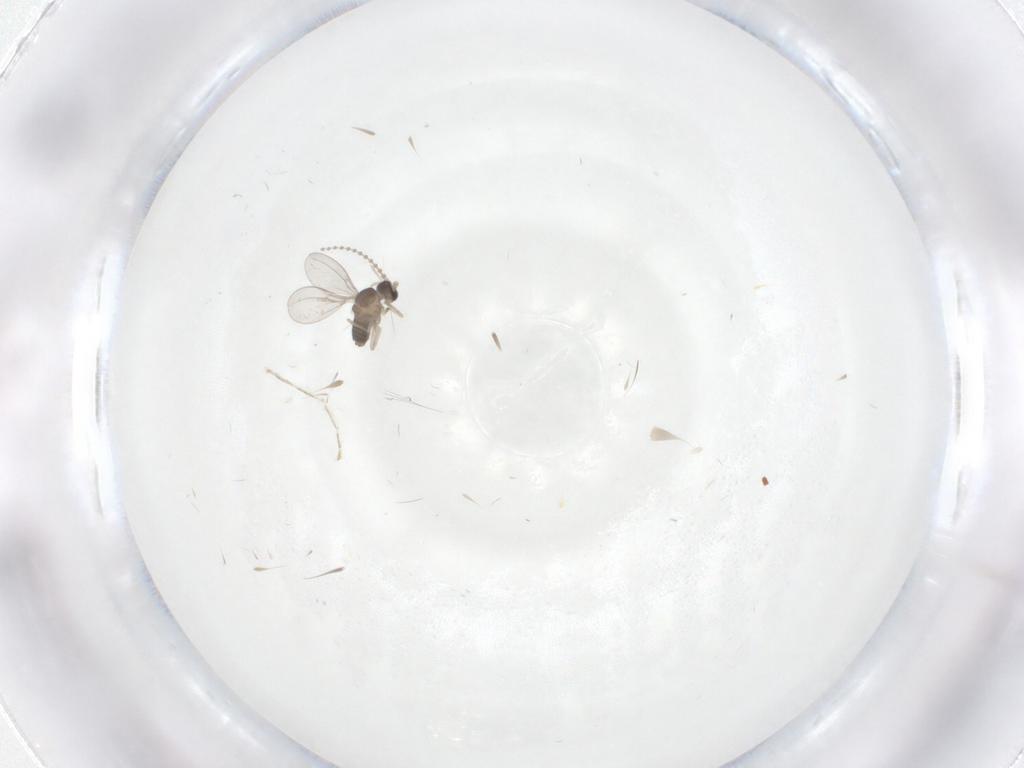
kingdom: Animalia
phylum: Arthropoda
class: Insecta
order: Diptera
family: Cecidomyiidae
